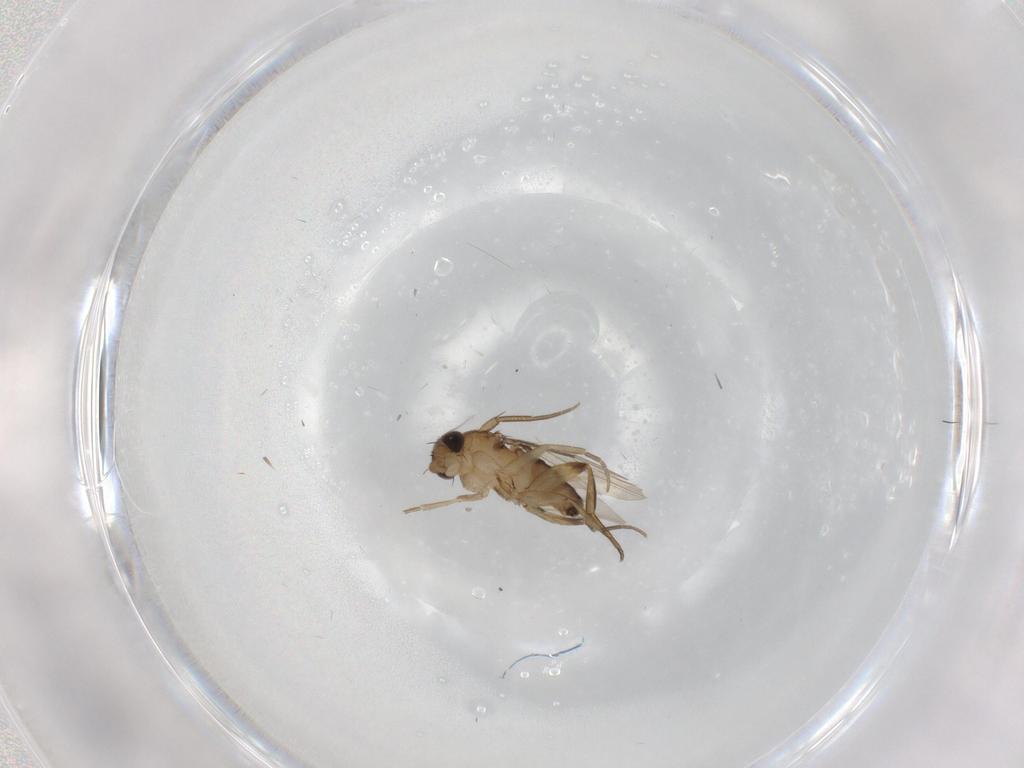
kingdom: Animalia
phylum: Arthropoda
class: Insecta
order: Diptera
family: Phoridae
